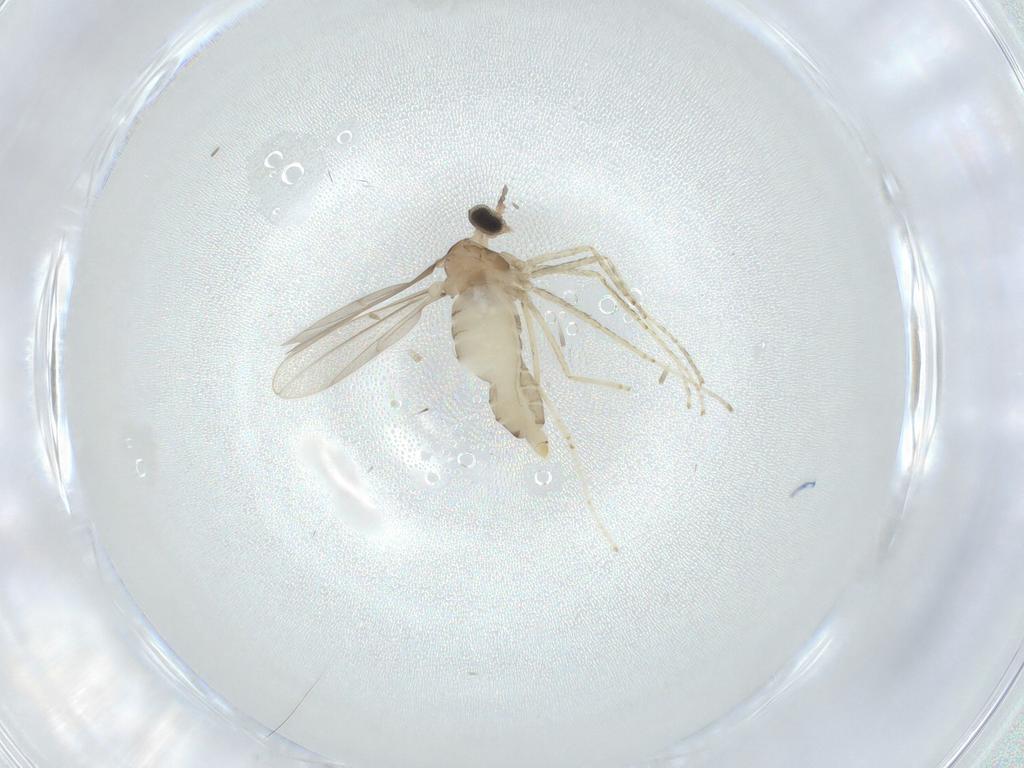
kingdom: Animalia
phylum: Arthropoda
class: Insecta
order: Diptera
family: Cecidomyiidae
